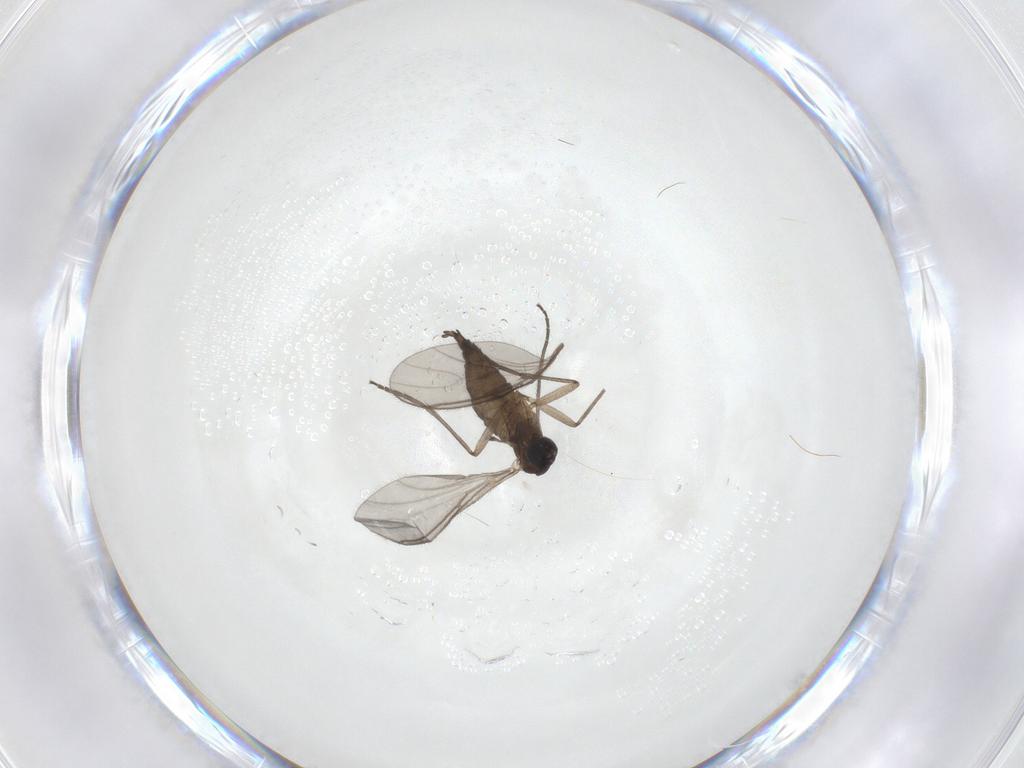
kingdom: Animalia
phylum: Arthropoda
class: Insecta
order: Diptera
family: Sciaridae
